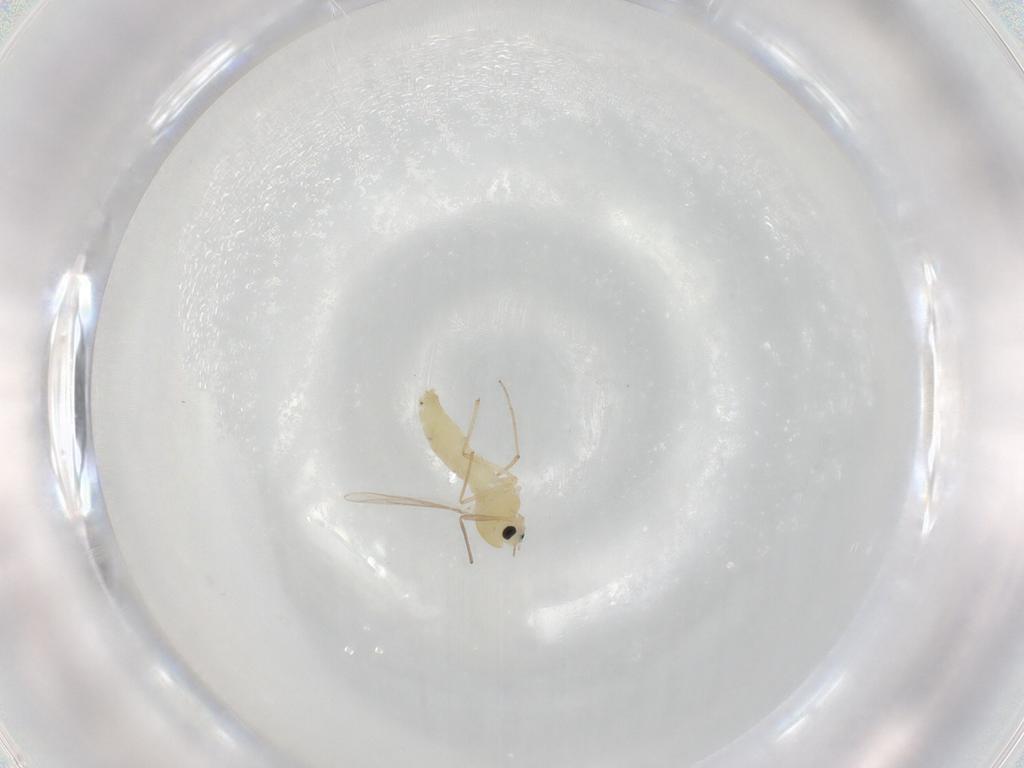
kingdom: Animalia
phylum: Arthropoda
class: Insecta
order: Diptera
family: Chironomidae
